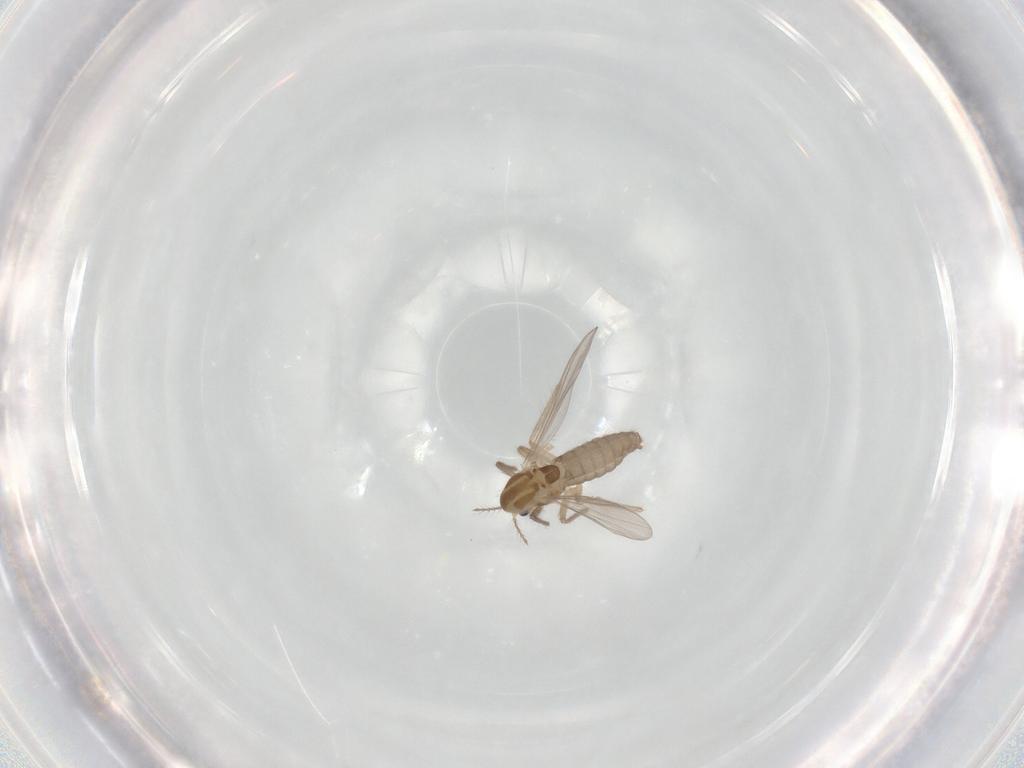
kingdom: Animalia
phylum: Arthropoda
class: Insecta
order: Diptera
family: Chironomidae
